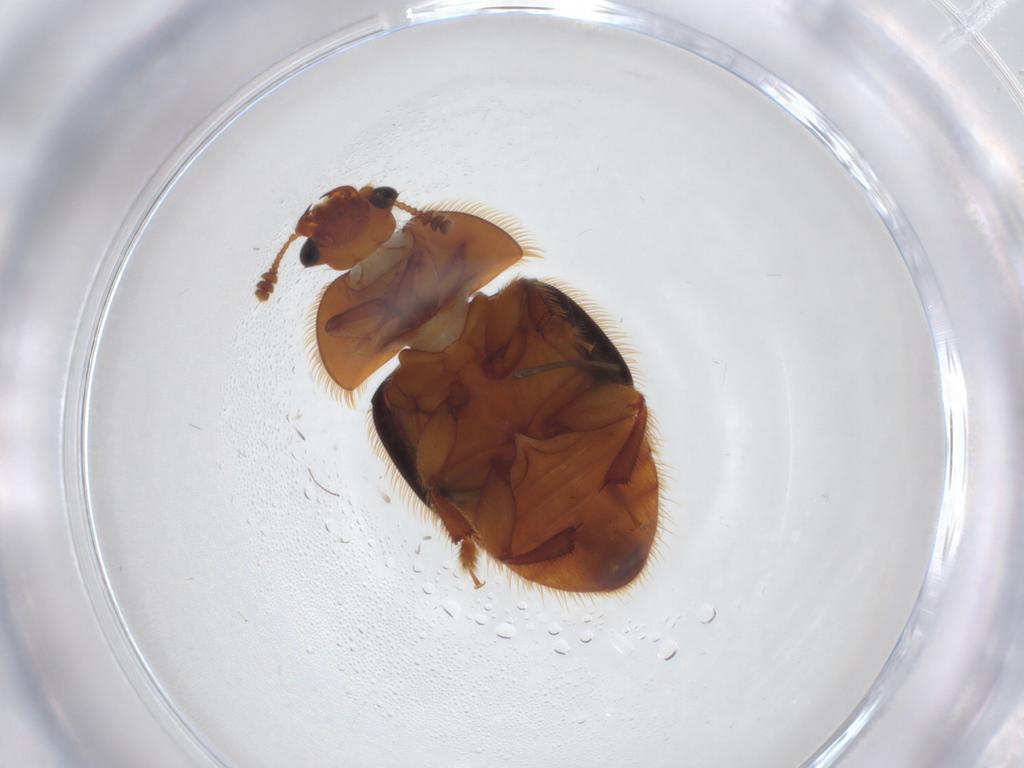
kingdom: Animalia
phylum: Arthropoda
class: Insecta
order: Coleoptera
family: Nitidulidae
